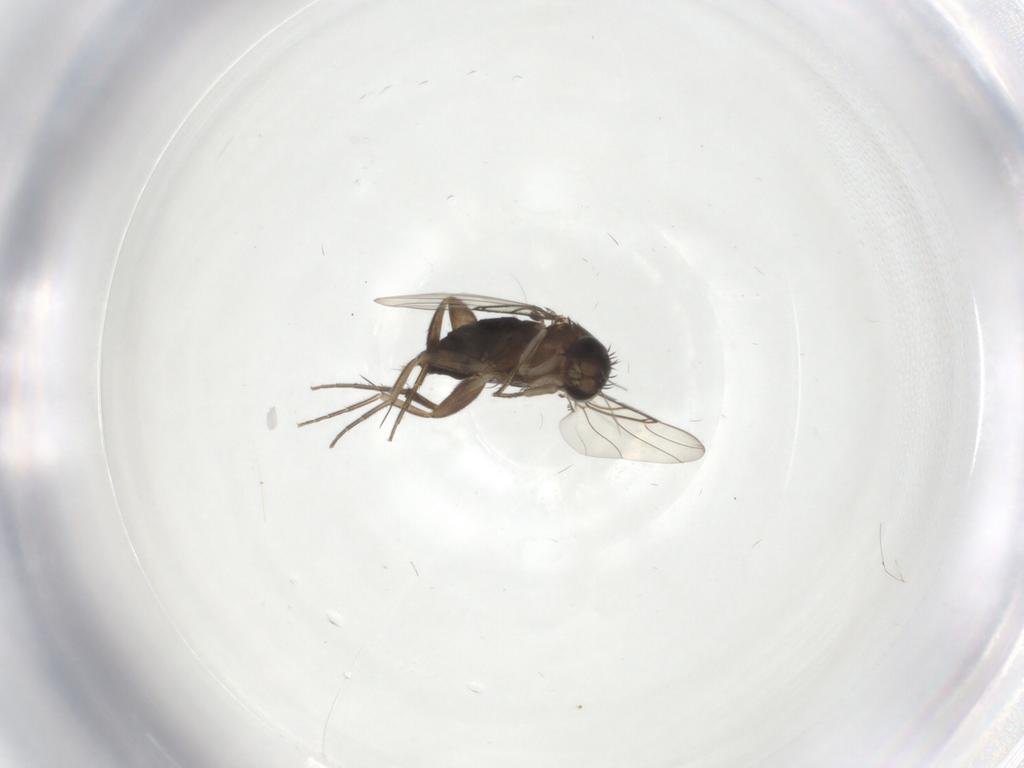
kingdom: Animalia
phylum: Arthropoda
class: Insecta
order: Diptera
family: Phoridae
